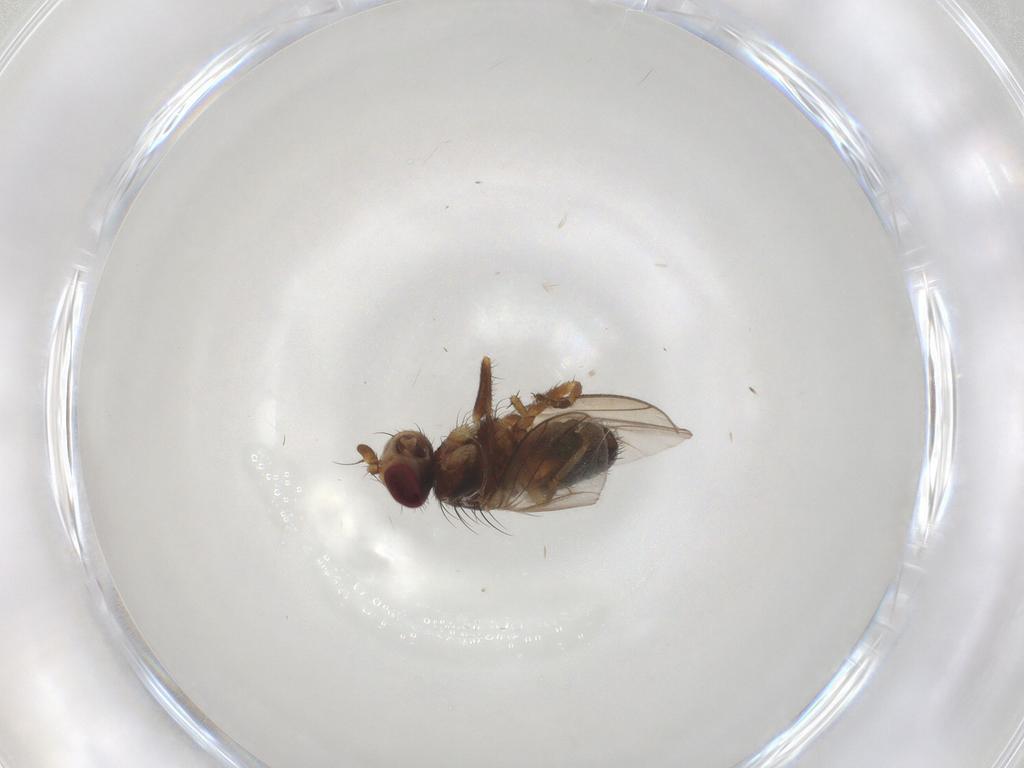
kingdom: Animalia
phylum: Arthropoda
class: Insecta
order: Diptera
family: Heleomyzidae
